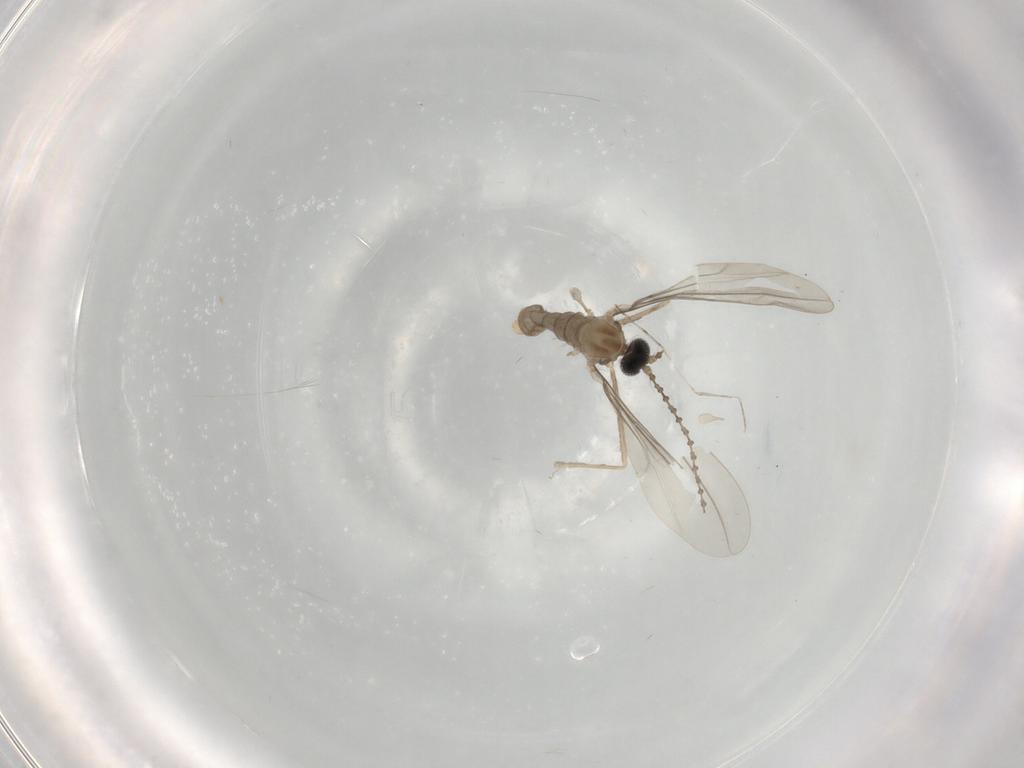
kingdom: Animalia
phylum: Arthropoda
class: Insecta
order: Diptera
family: Cecidomyiidae
